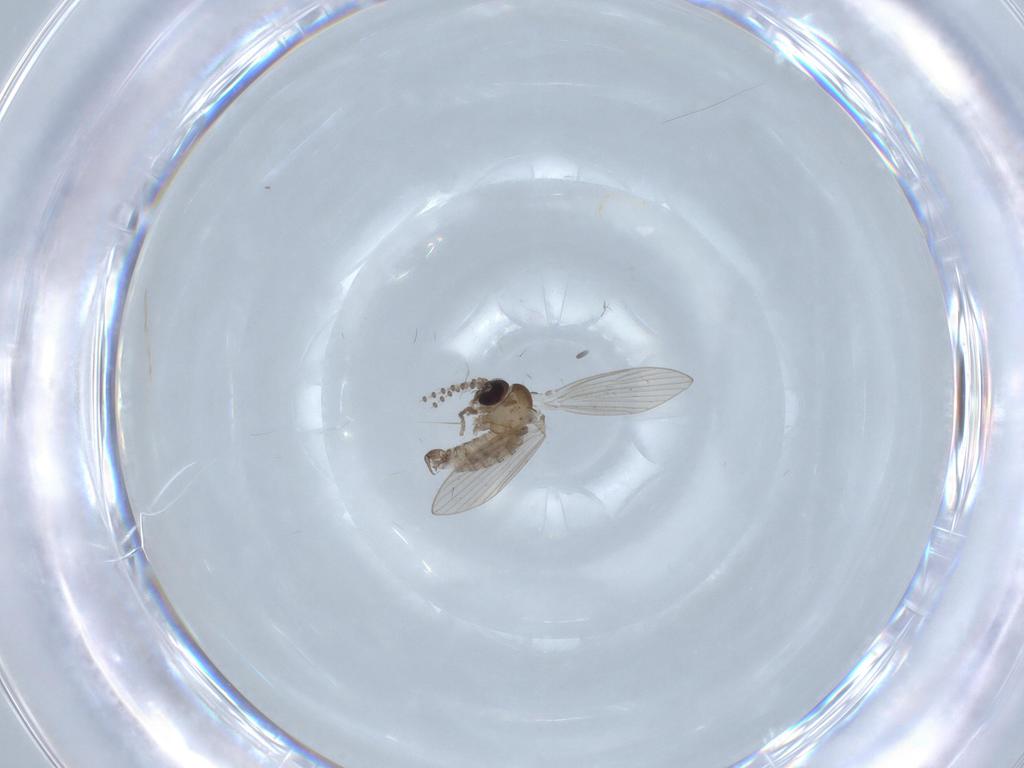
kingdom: Animalia
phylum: Arthropoda
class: Insecta
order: Diptera
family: Psychodidae
